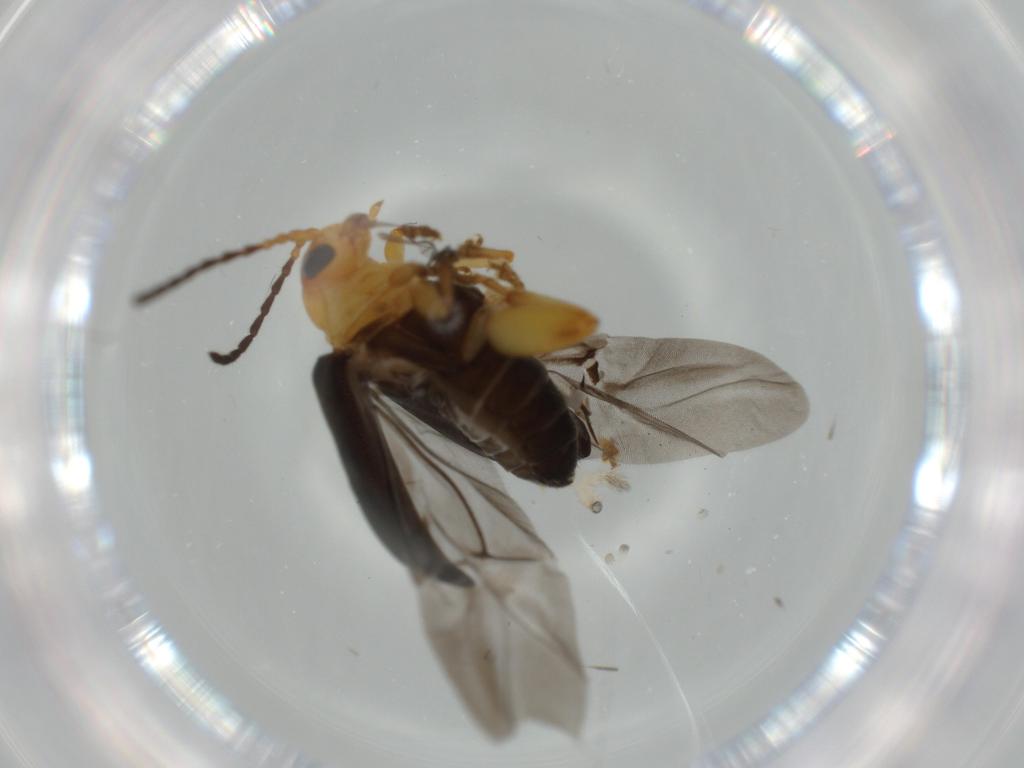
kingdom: Animalia
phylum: Arthropoda
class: Insecta
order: Coleoptera
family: Chrysomelidae
